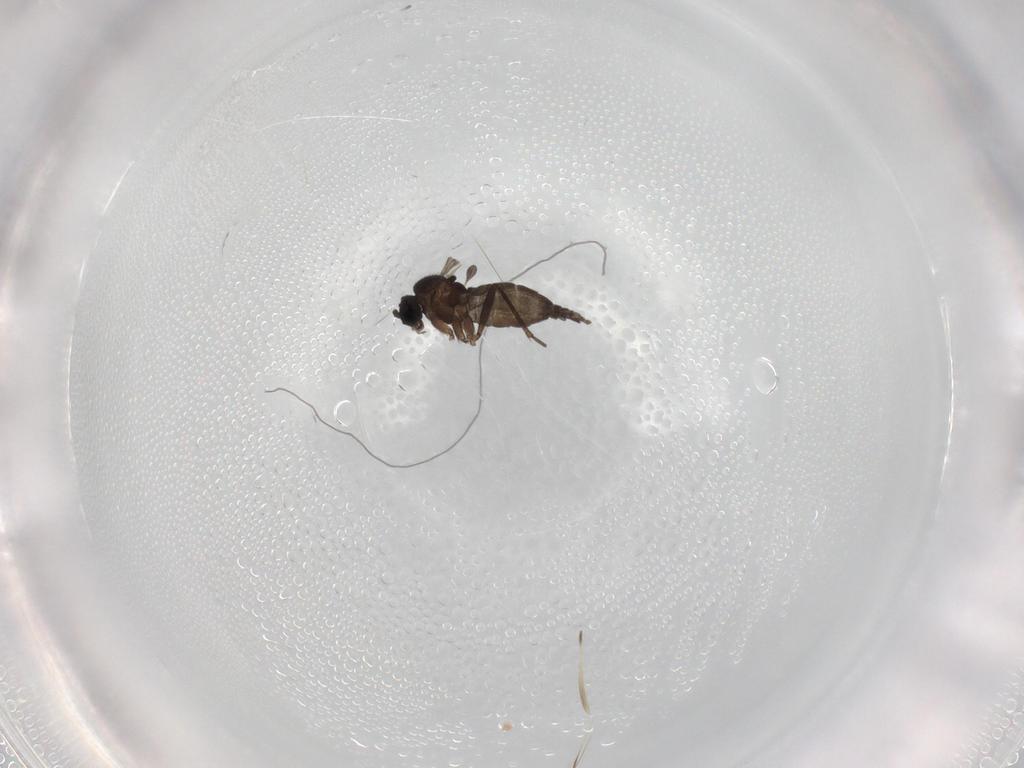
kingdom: Animalia
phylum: Arthropoda
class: Insecta
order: Diptera
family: Sciaridae
